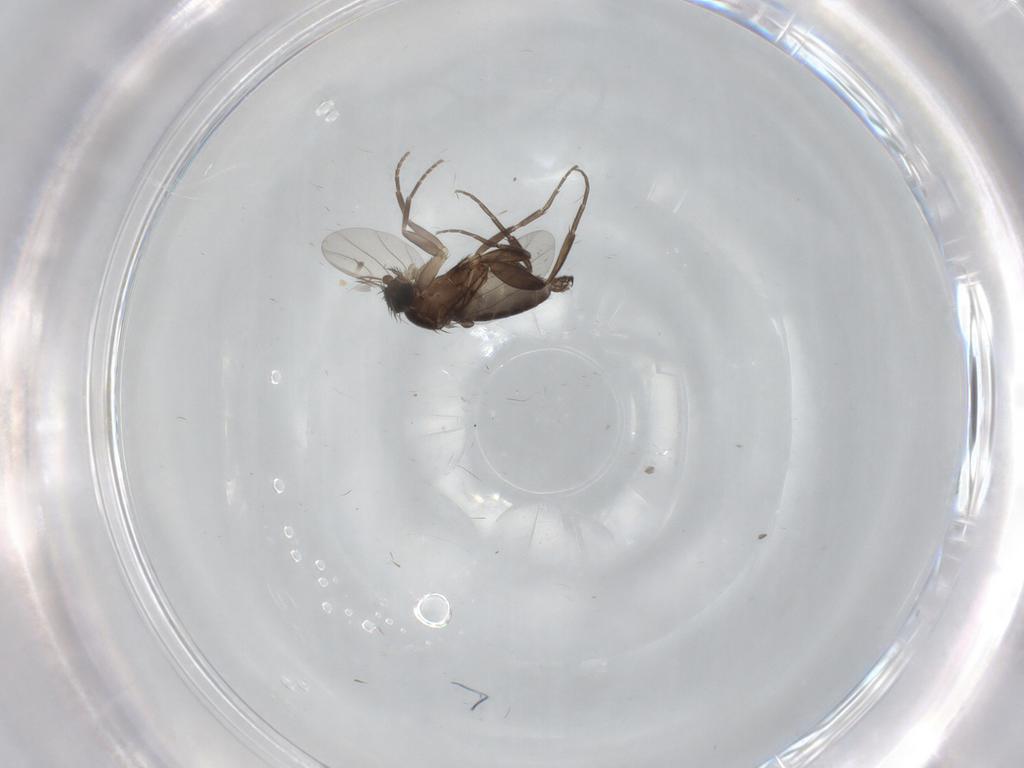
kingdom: Animalia
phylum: Arthropoda
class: Insecta
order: Diptera
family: Phoridae
